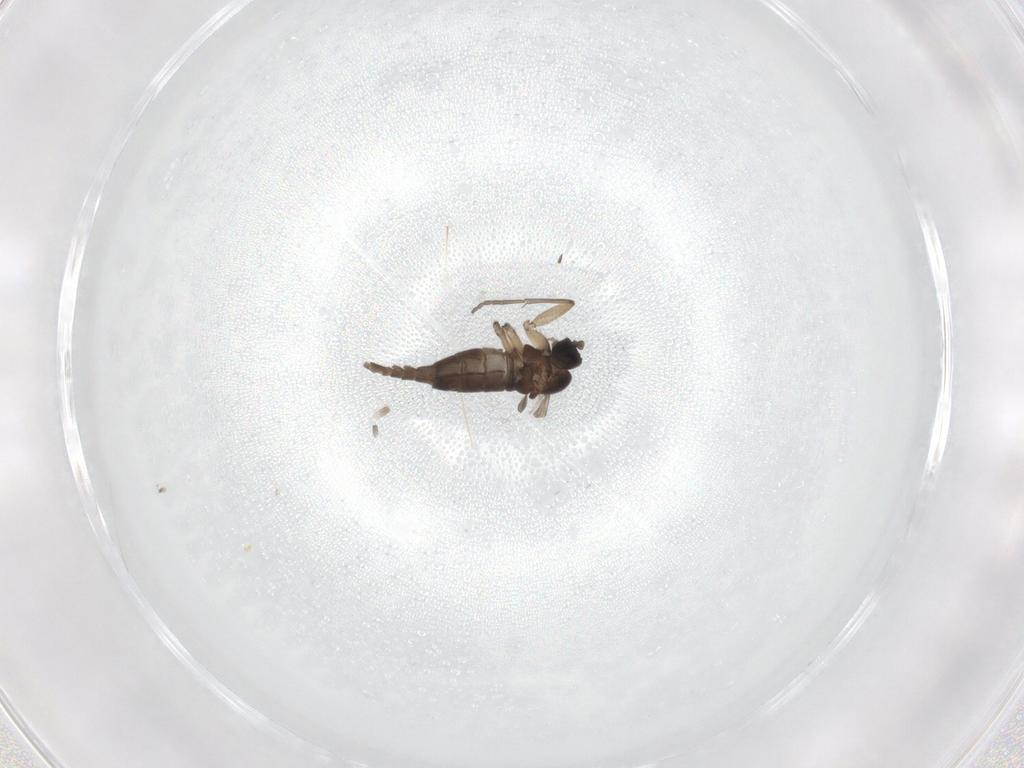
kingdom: Animalia
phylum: Arthropoda
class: Insecta
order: Diptera
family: Sciaridae
